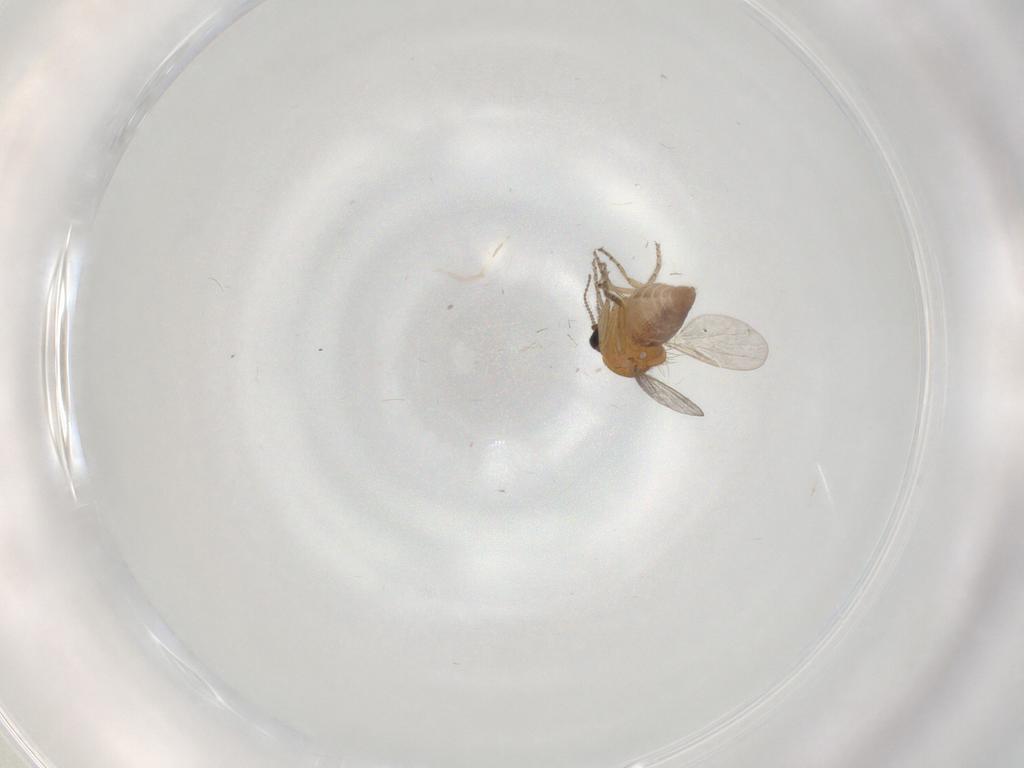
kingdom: Animalia
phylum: Arthropoda
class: Insecta
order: Diptera
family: Ceratopogonidae
